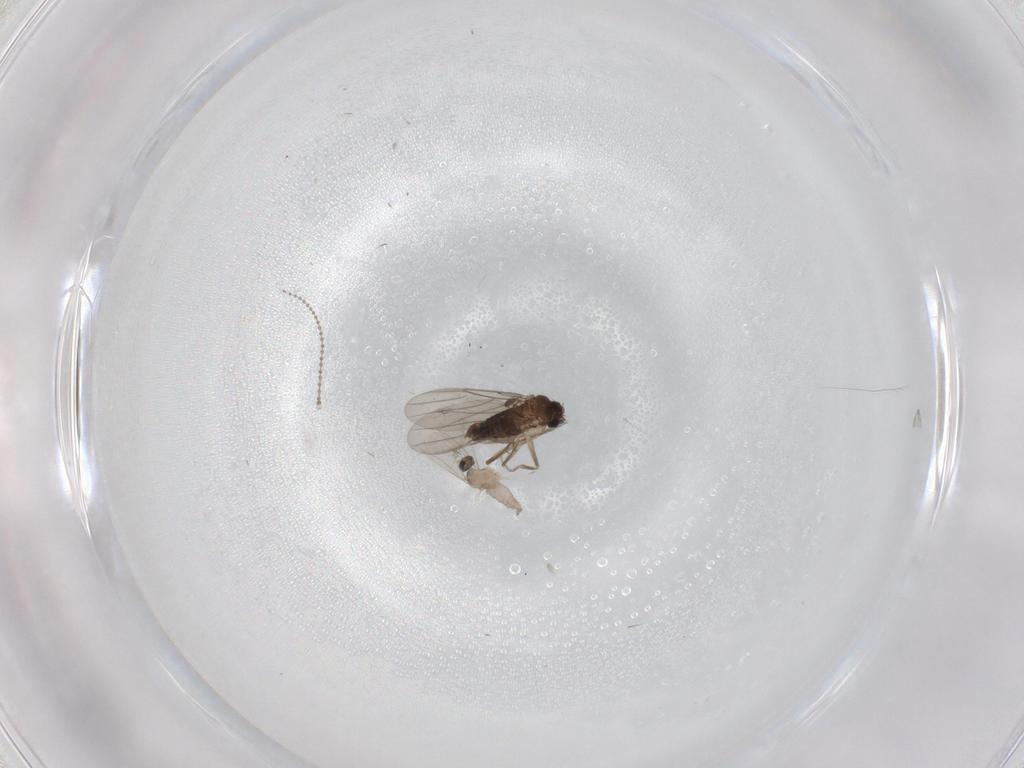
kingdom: Animalia
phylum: Arthropoda
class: Insecta
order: Diptera
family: Phoridae
